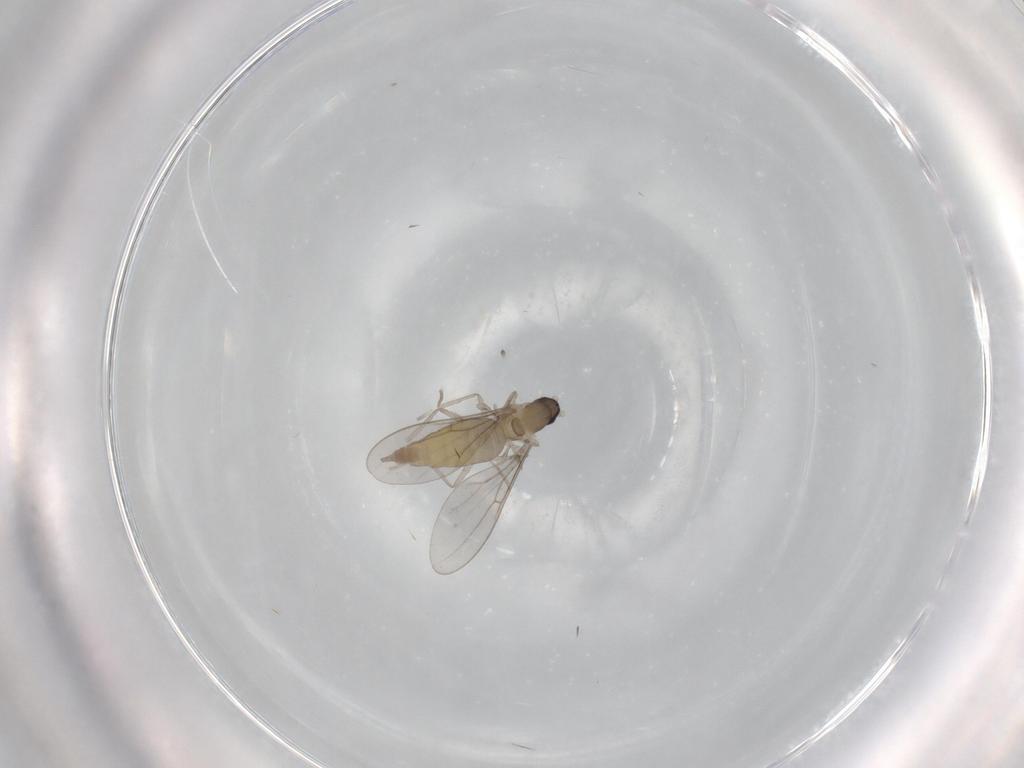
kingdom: Animalia
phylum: Arthropoda
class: Insecta
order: Diptera
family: Cecidomyiidae
